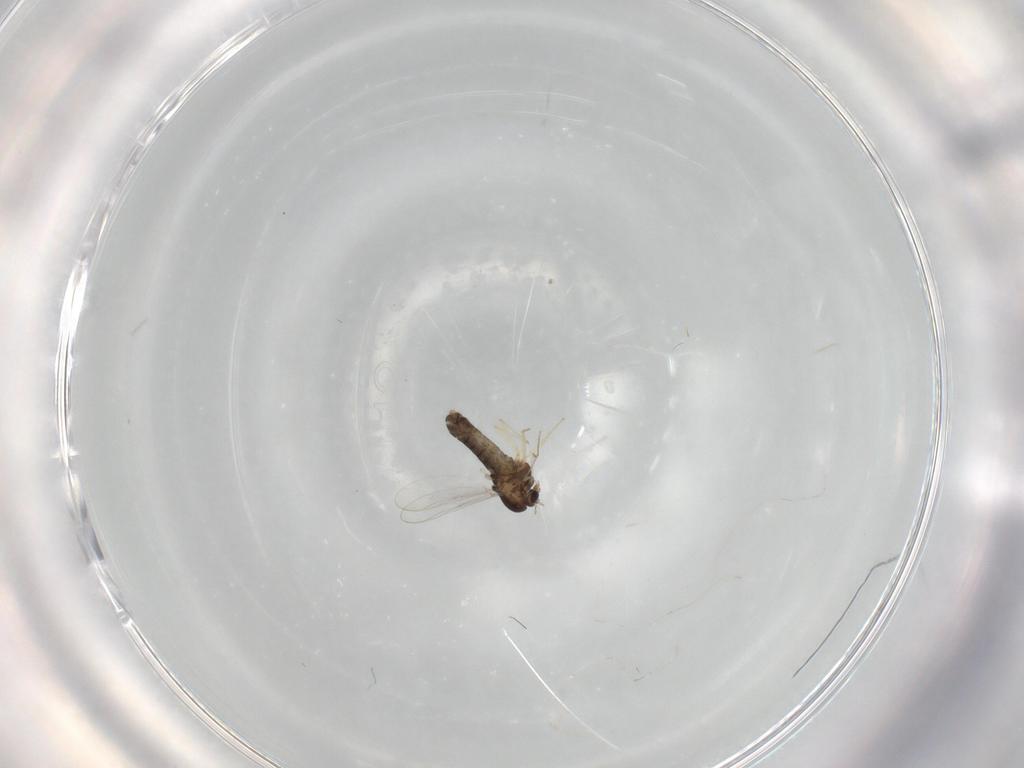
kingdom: Animalia
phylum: Arthropoda
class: Insecta
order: Diptera
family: Chironomidae
